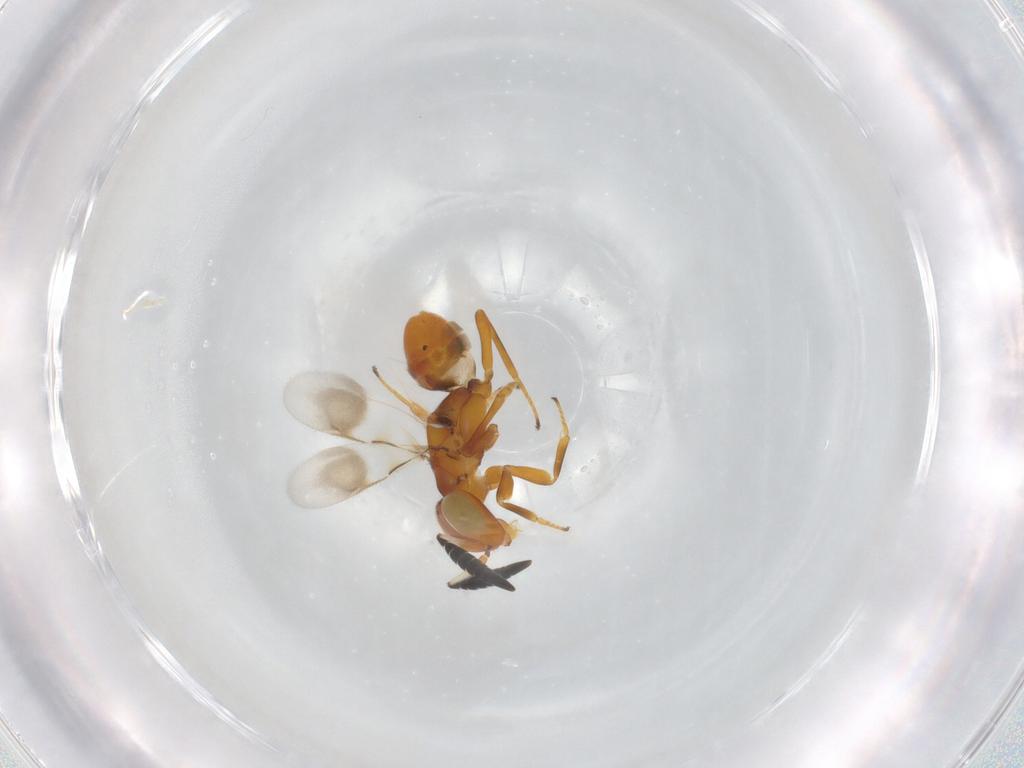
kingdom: Animalia
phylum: Arthropoda
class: Insecta
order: Hymenoptera
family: Eurytomidae
